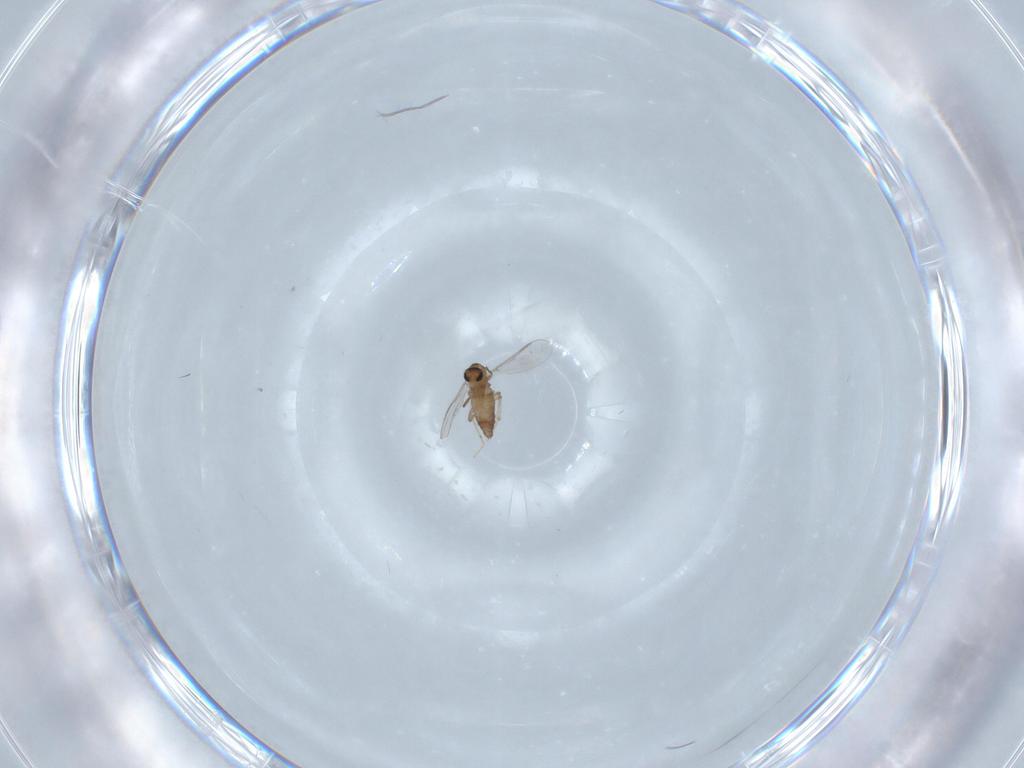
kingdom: Animalia
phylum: Arthropoda
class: Insecta
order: Diptera
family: Chironomidae
